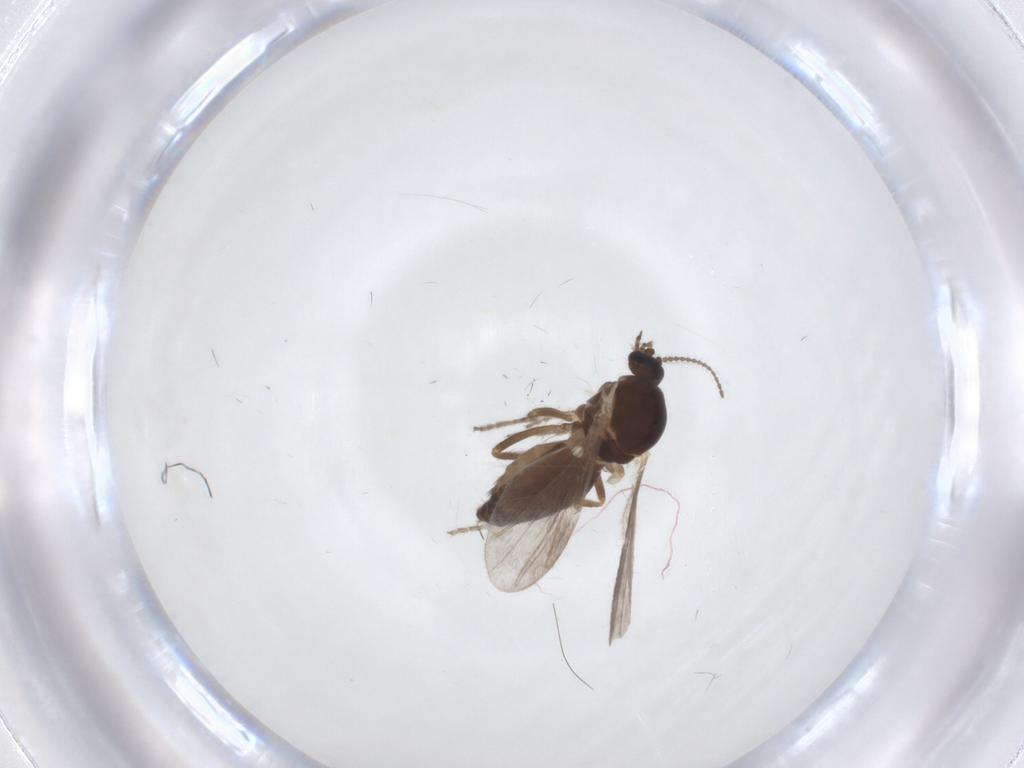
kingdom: Animalia
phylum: Arthropoda
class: Insecta
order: Diptera
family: Ceratopogonidae
